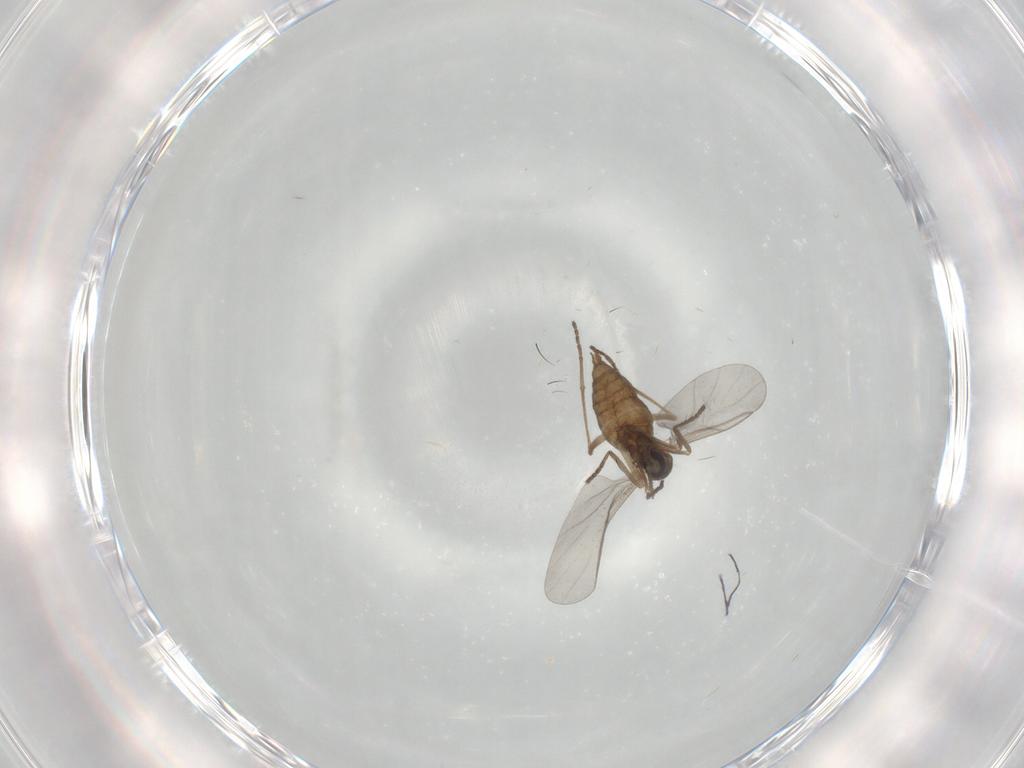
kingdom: Animalia
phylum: Arthropoda
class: Insecta
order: Diptera
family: Cecidomyiidae
